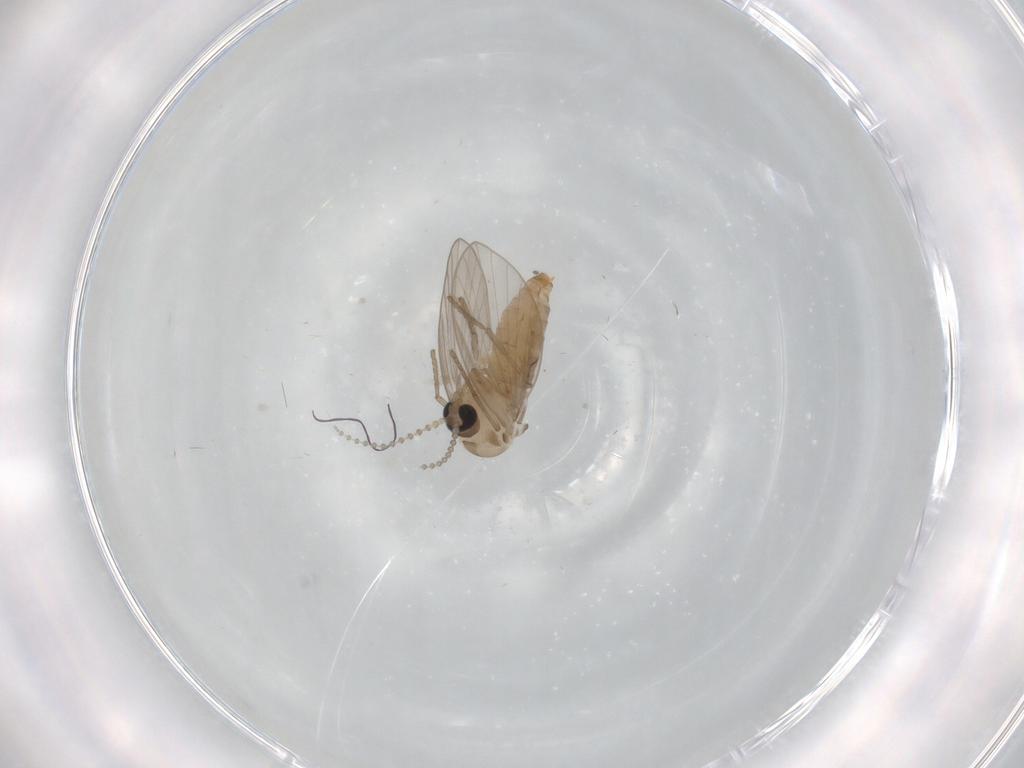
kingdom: Animalia
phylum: Arthropoda
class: Insecta
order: Diptera
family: Psychodidae
